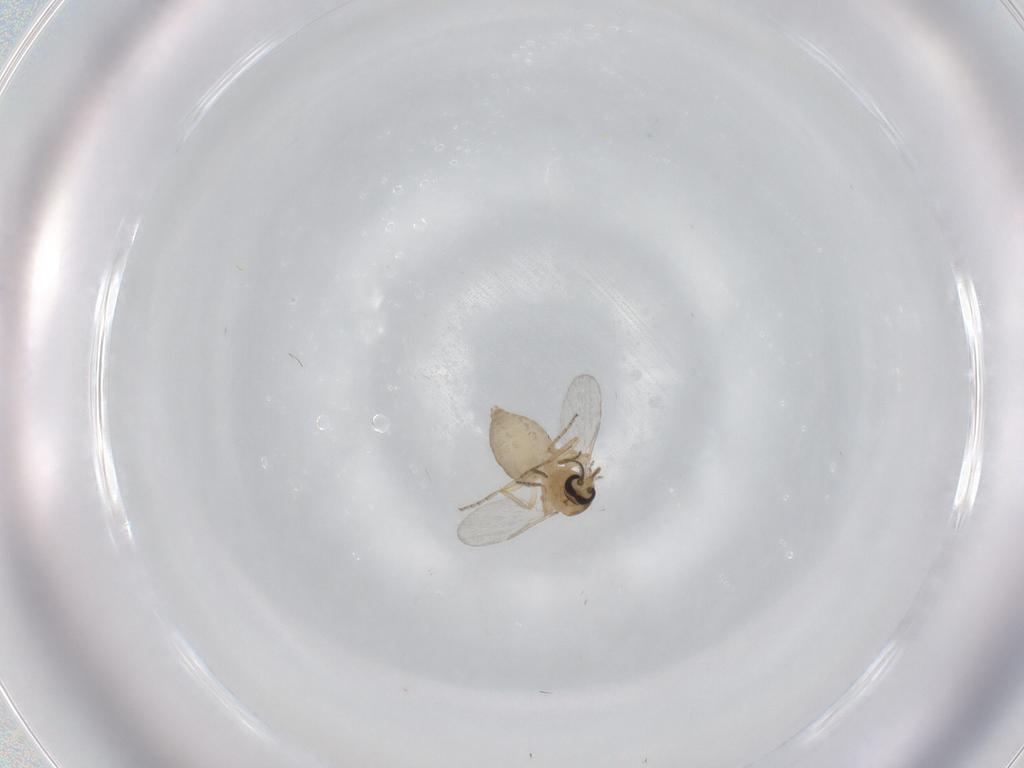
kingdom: Animalia
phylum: Arthropoda
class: Insecta
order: Diptera
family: Ceratopogonidae
